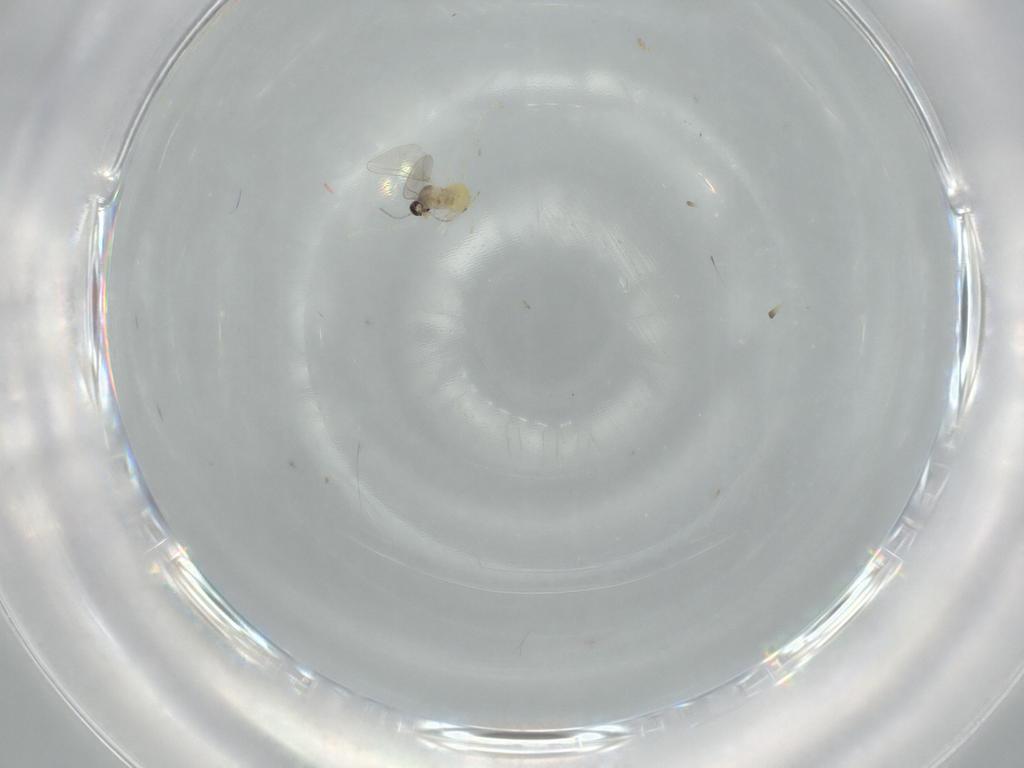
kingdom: Animalia
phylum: Arthropoda
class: Insecta
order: Diptera
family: Cecidomyiidae
